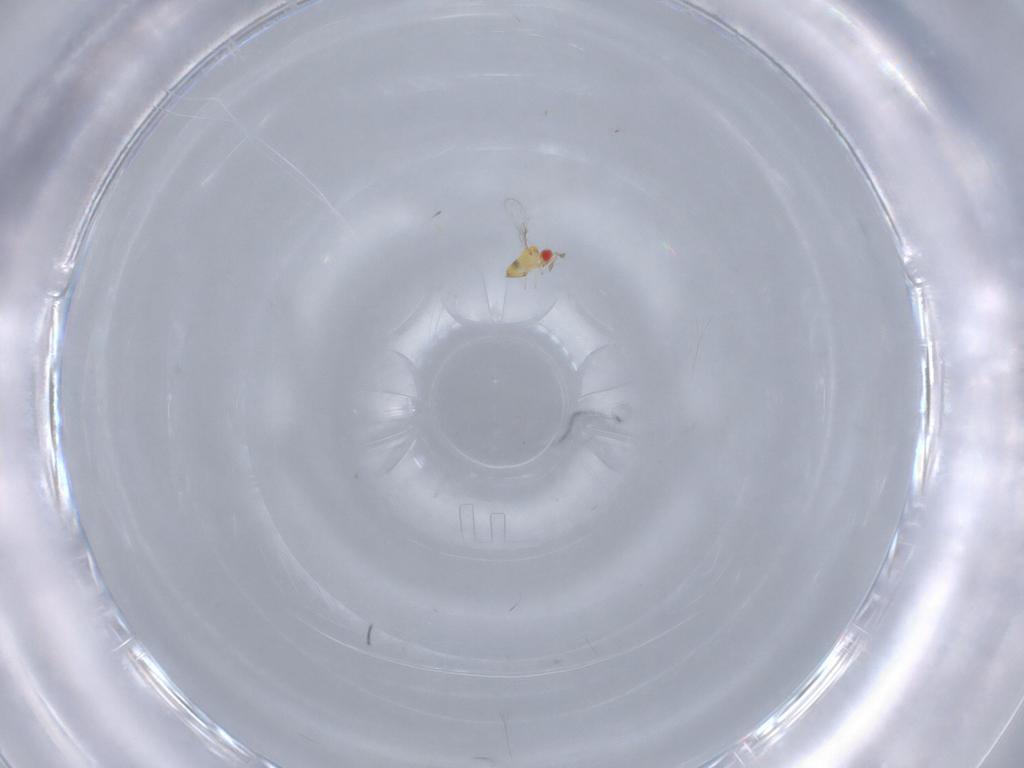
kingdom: Animalia
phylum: Arthropoda
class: Insecta
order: Hymenoptera
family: Trichogrammatidae
